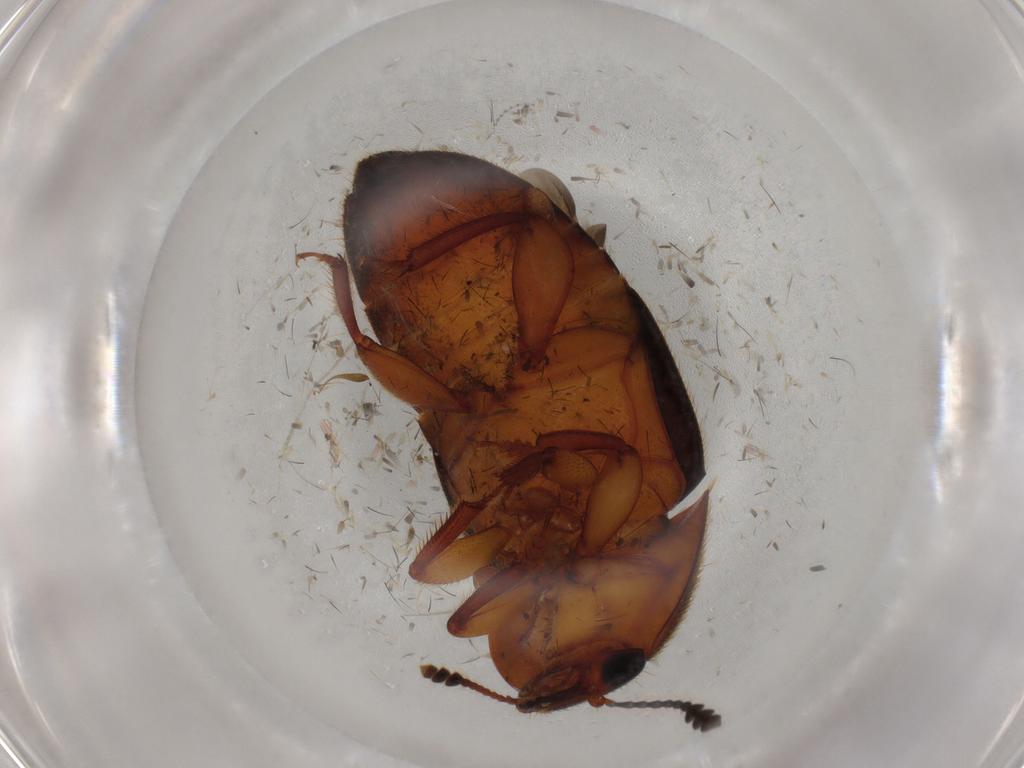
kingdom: Animalia
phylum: Arthropoda
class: Insecta
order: Coleoptera
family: Nitidulidae
